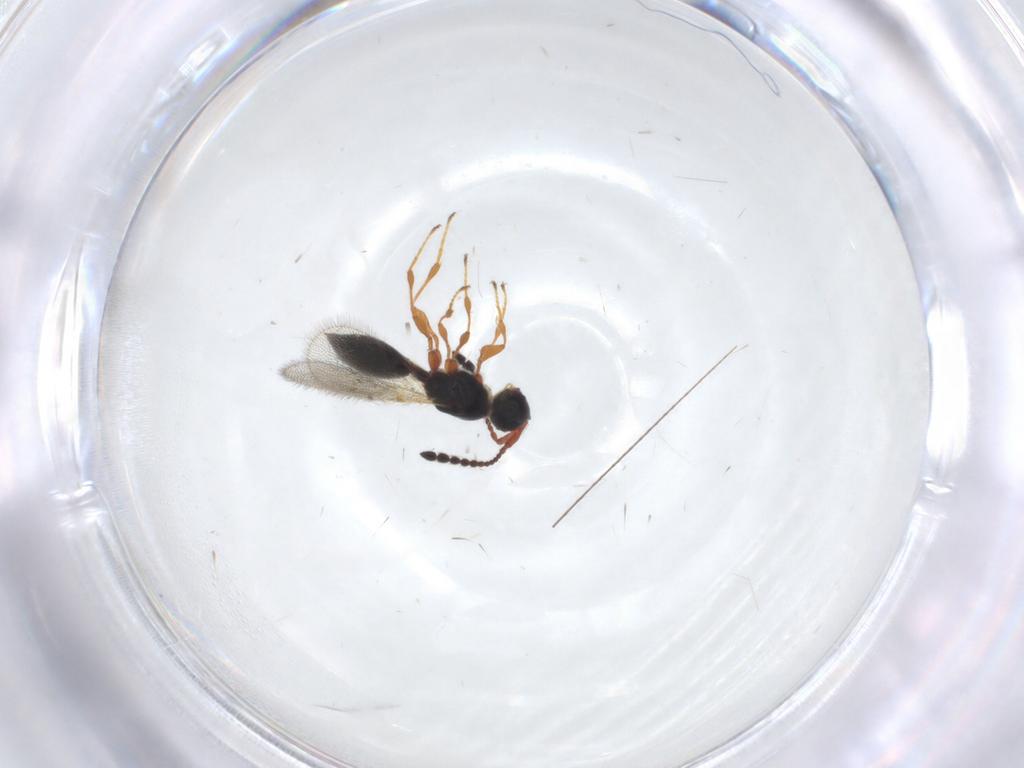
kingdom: Animalia
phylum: Arthropoda
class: Insecta
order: Hymenoptera
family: Diapriidae
